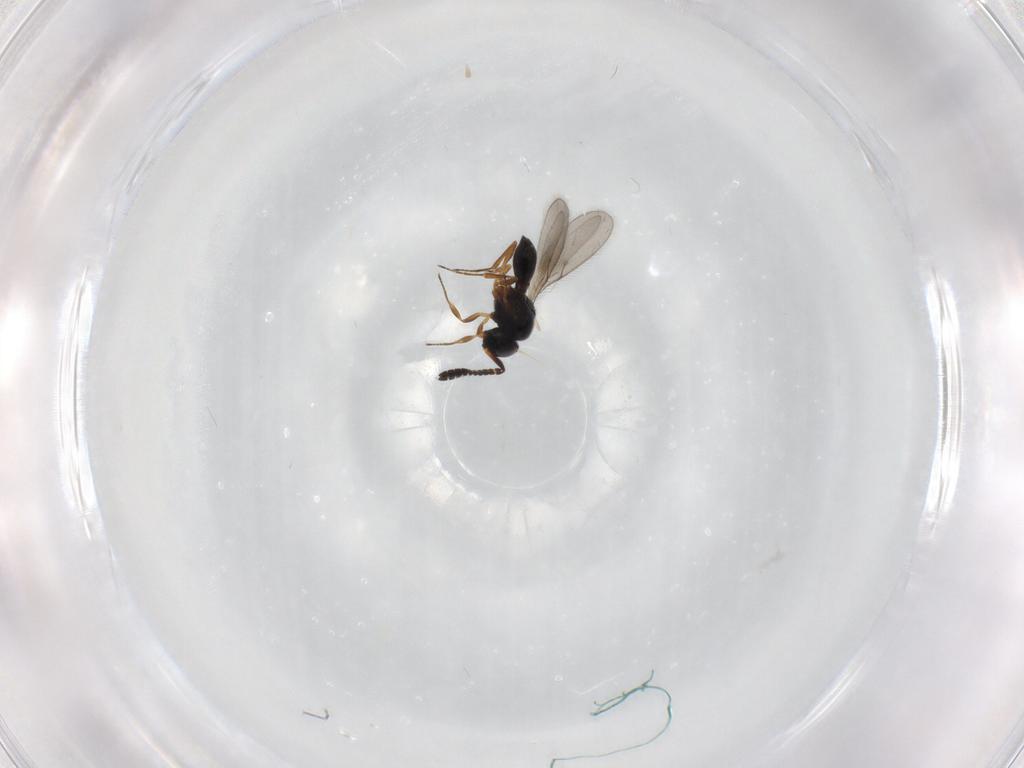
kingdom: Animalia
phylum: Arthropoda
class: Insecta
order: Hymenoptera
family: Scelionidae
